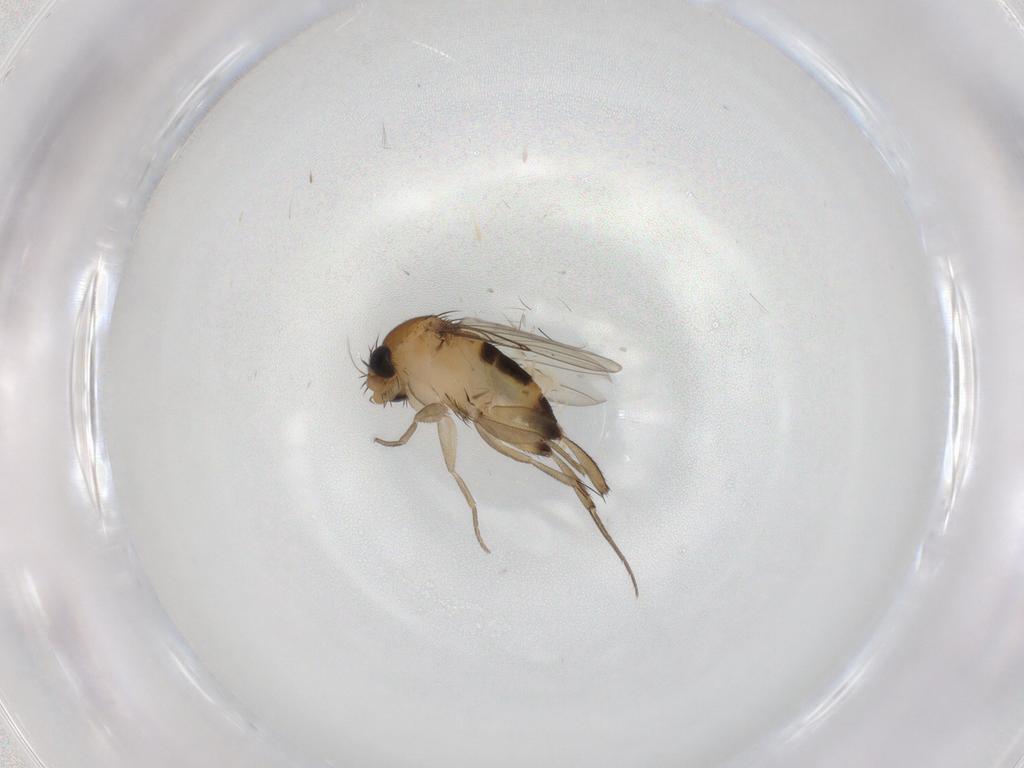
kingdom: Animalia
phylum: Arthropoda
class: Insecta
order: Diptera
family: Phoridae
